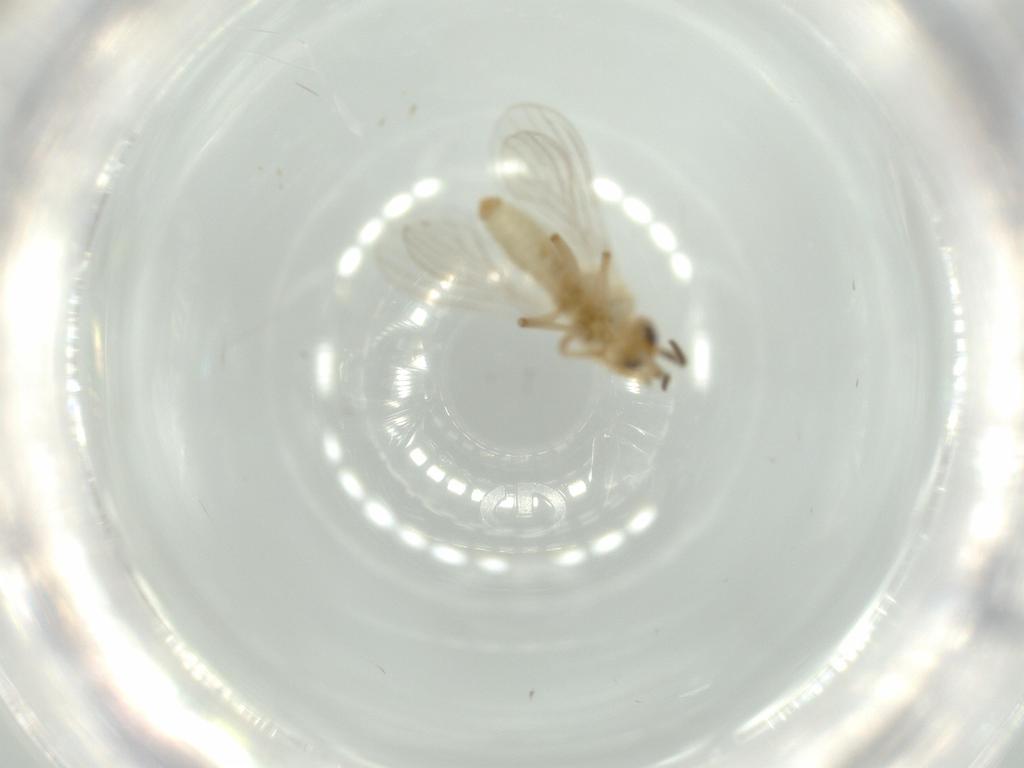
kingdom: Animalia
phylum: Arthropoda
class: Insecta
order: Neuroptera
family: Coniopterygidae
